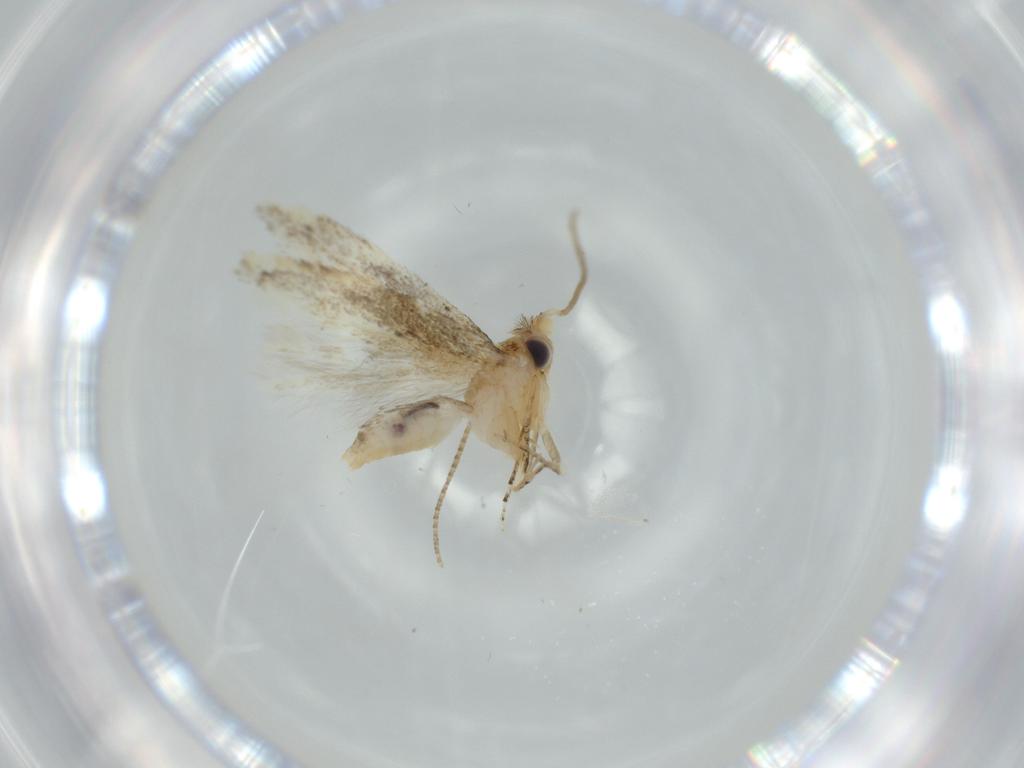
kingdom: Animalia
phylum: Arthropoda
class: Insecta
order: Lepidoptera
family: Bucculatricidae
